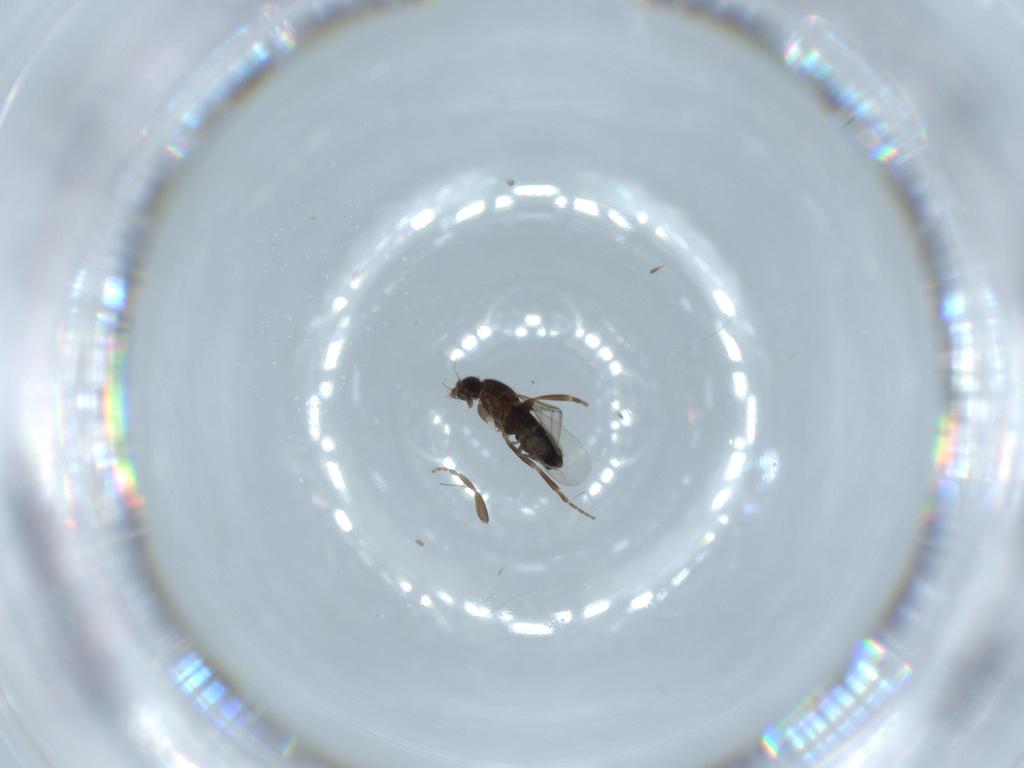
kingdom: Animalia
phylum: Arthropoda
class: Insecta
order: Diptera
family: Phoridae
